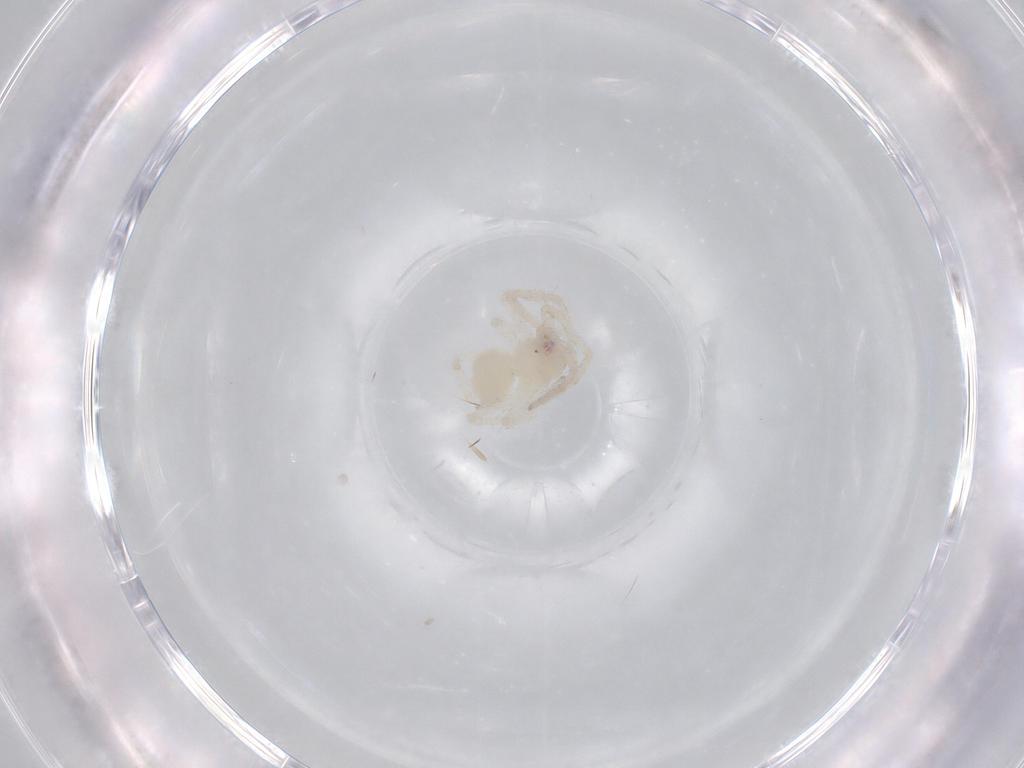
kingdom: Animalia
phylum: Arthropoda
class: Arachnida
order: Araneae
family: Nesticidae
